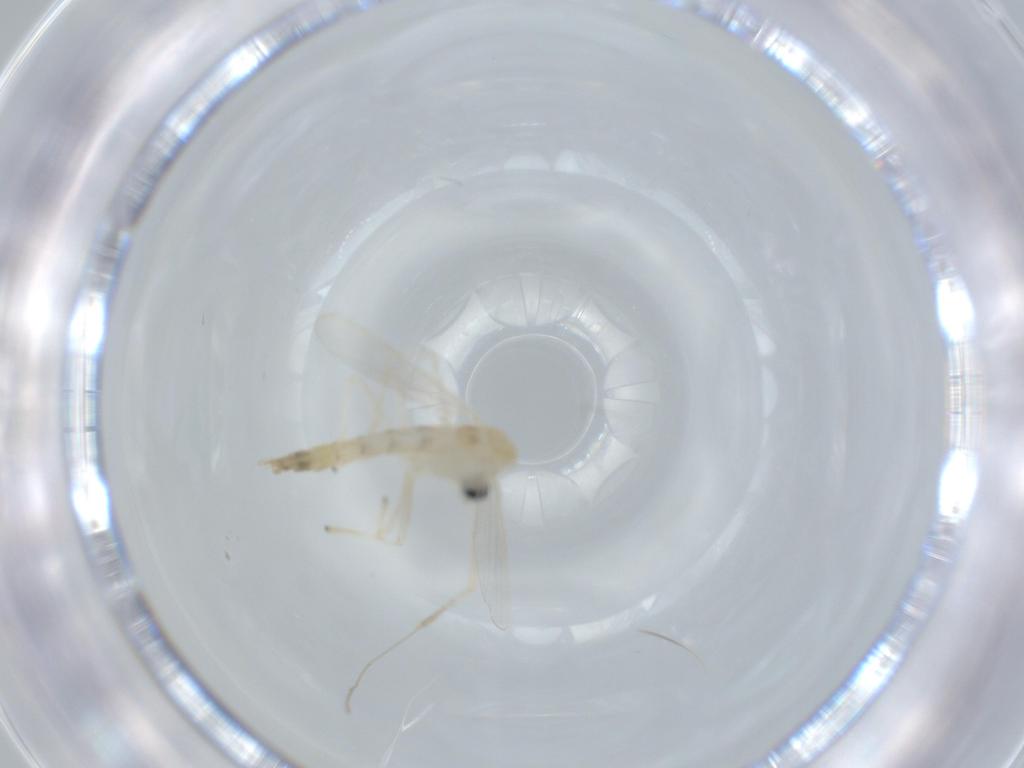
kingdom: Animalia
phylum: Arthropoda
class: Insecta
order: Diptera
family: Chironomidae
